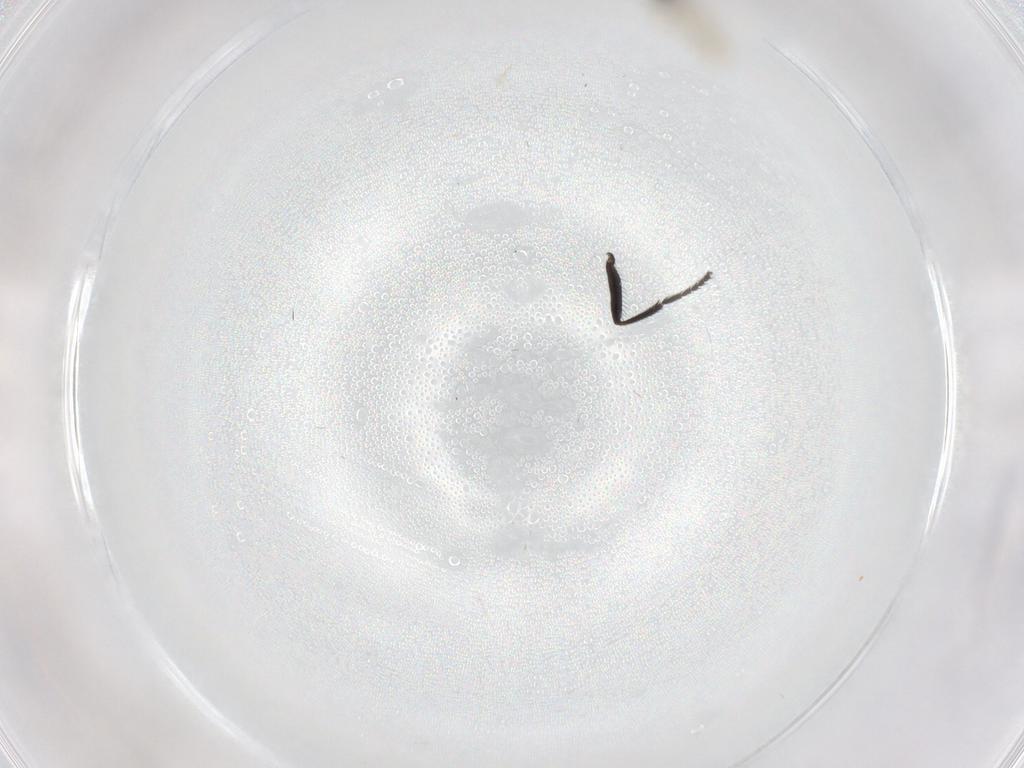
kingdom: Animalia
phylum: Arthropoda
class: Insecta
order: Diptera
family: Milichiidae
